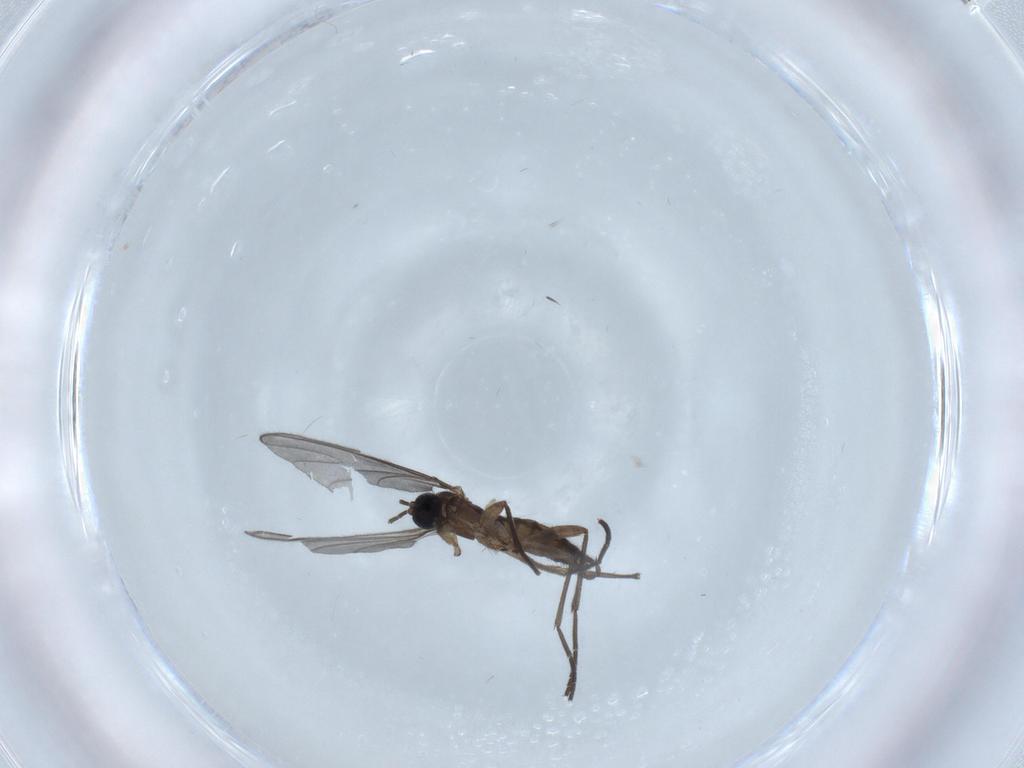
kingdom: Animalia
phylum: Arthropoda
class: Insecta
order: Diptera
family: Sciaridae
